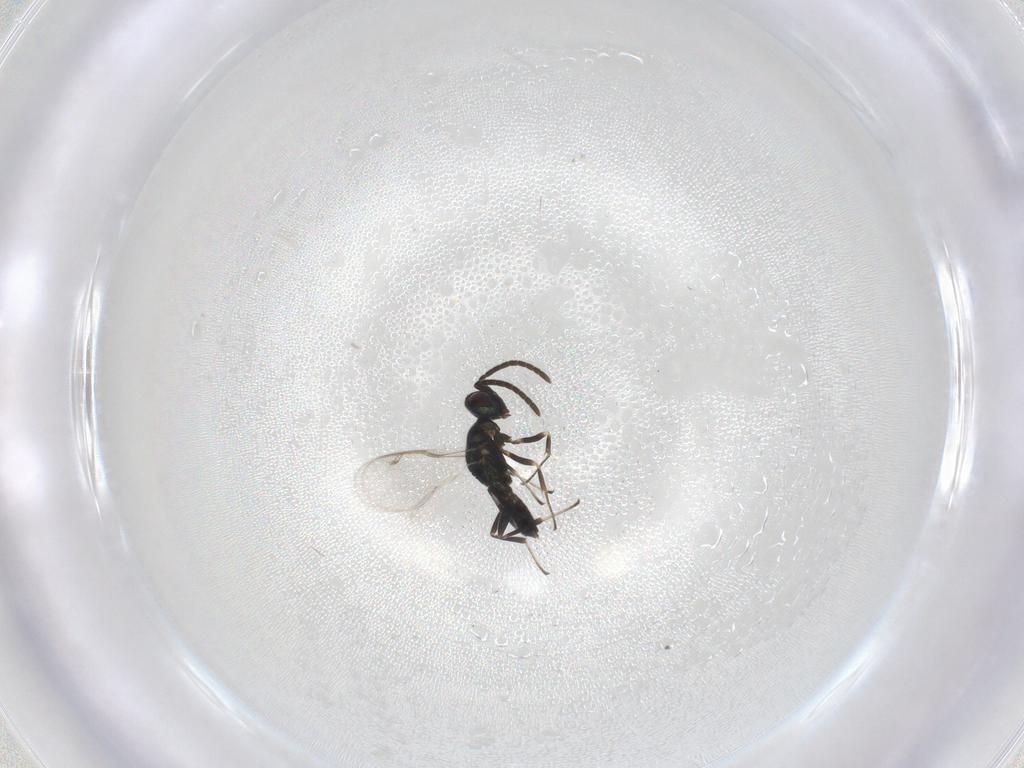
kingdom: Animalia
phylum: Arthropoda
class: Insecta
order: Hymenoptera
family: Eupelmidae
